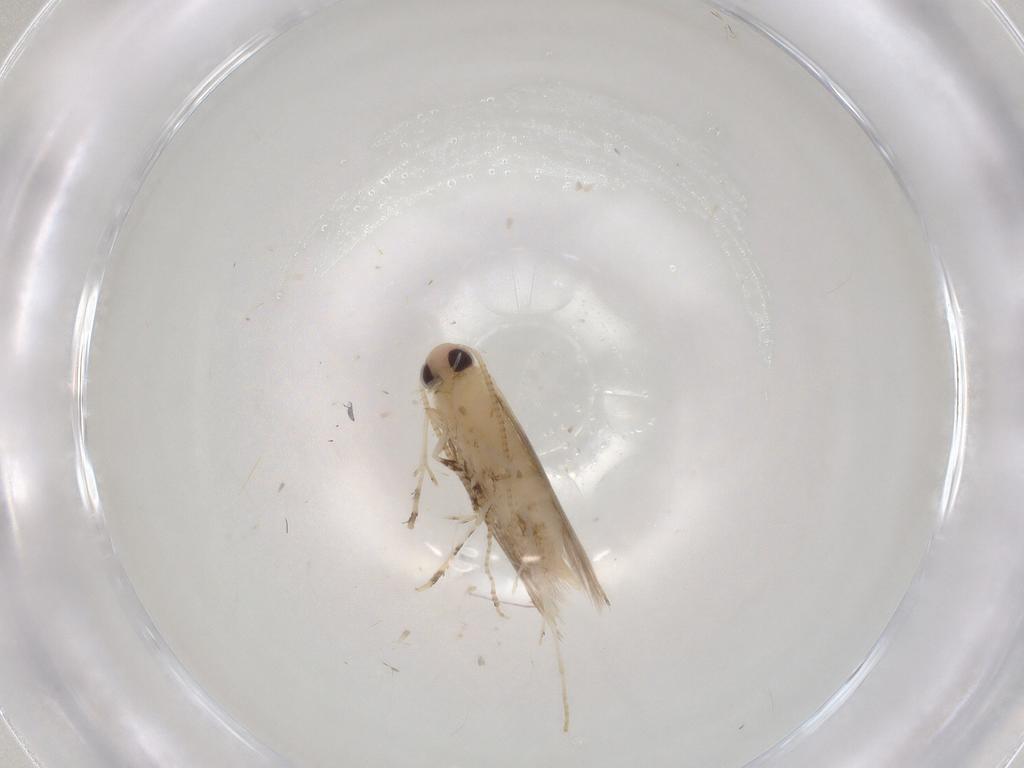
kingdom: Animalia
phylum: Arthropoda
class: Insecta
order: Lepidoptera
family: Gracillariidae
